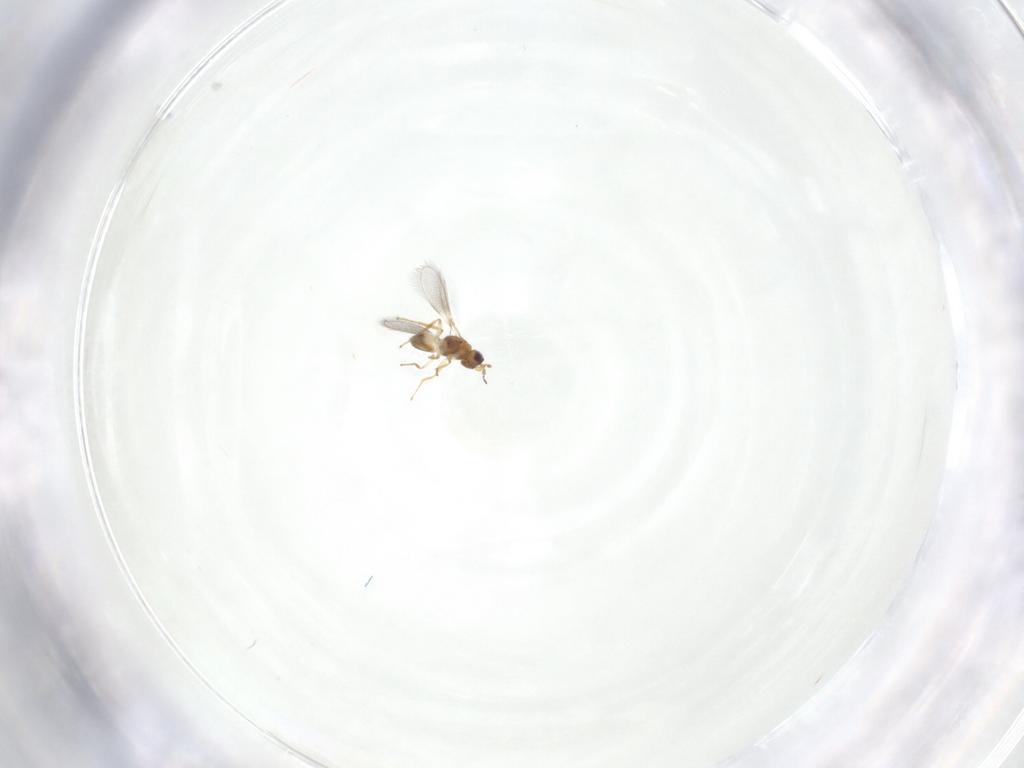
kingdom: Animalia
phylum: Arthropoda
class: Insecta
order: Hymenoptera
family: Mymaridae
